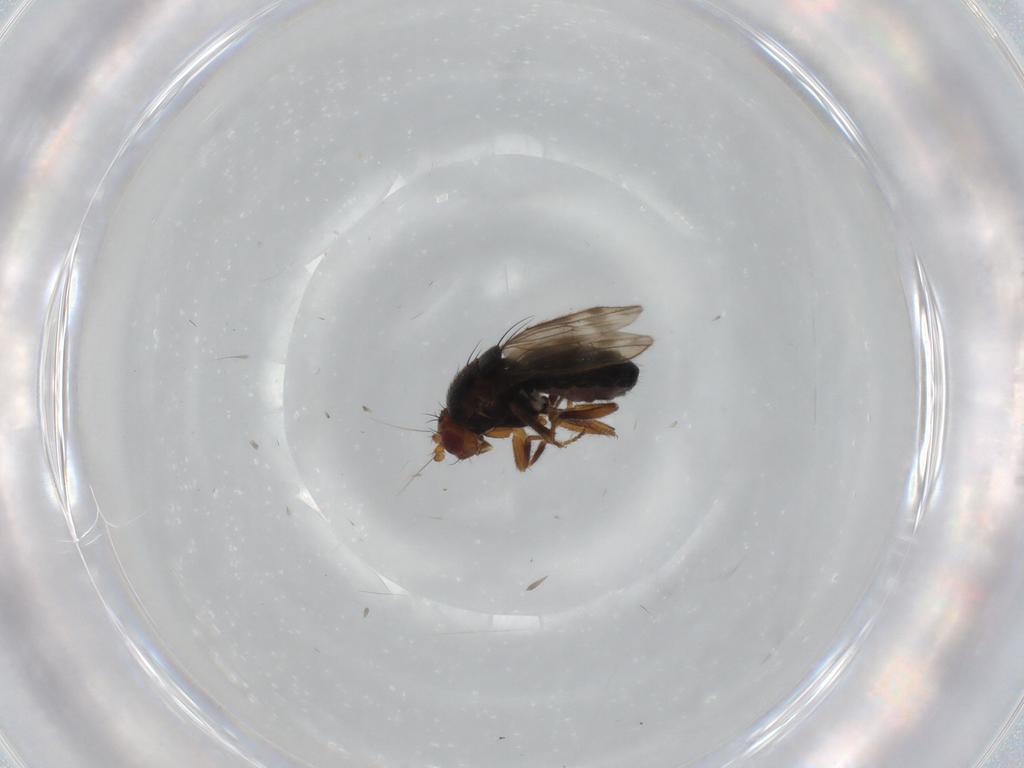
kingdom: Animalia
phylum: Arthropoda
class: Insecta
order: Diptera
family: Sphaeroceridae
